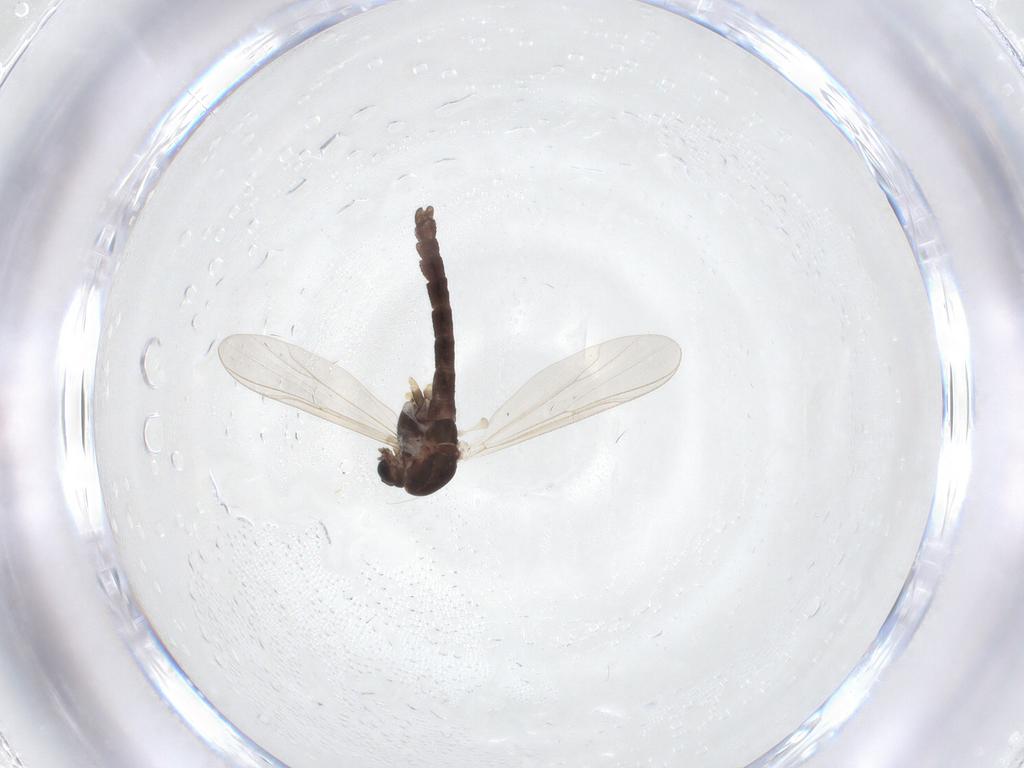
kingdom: Animalia
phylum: Arthropoda
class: Insecta
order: Diptera
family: Chironomidae
